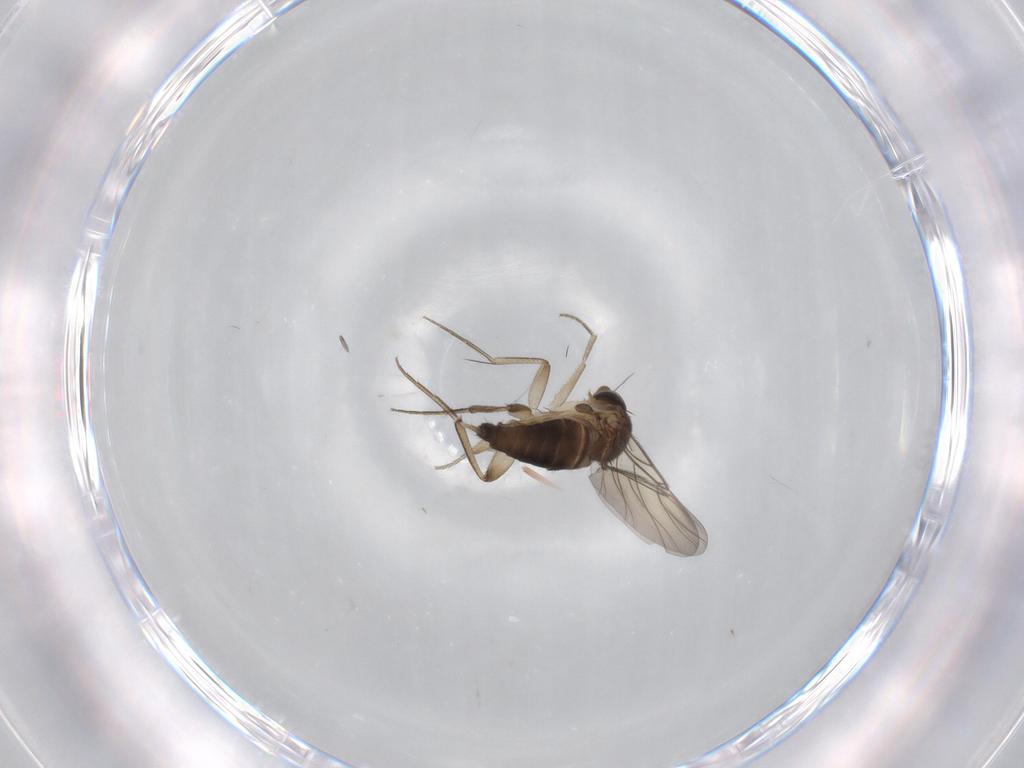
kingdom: Animalia
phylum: Arthropoda
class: Insecta
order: Diptera
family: Phoridae
